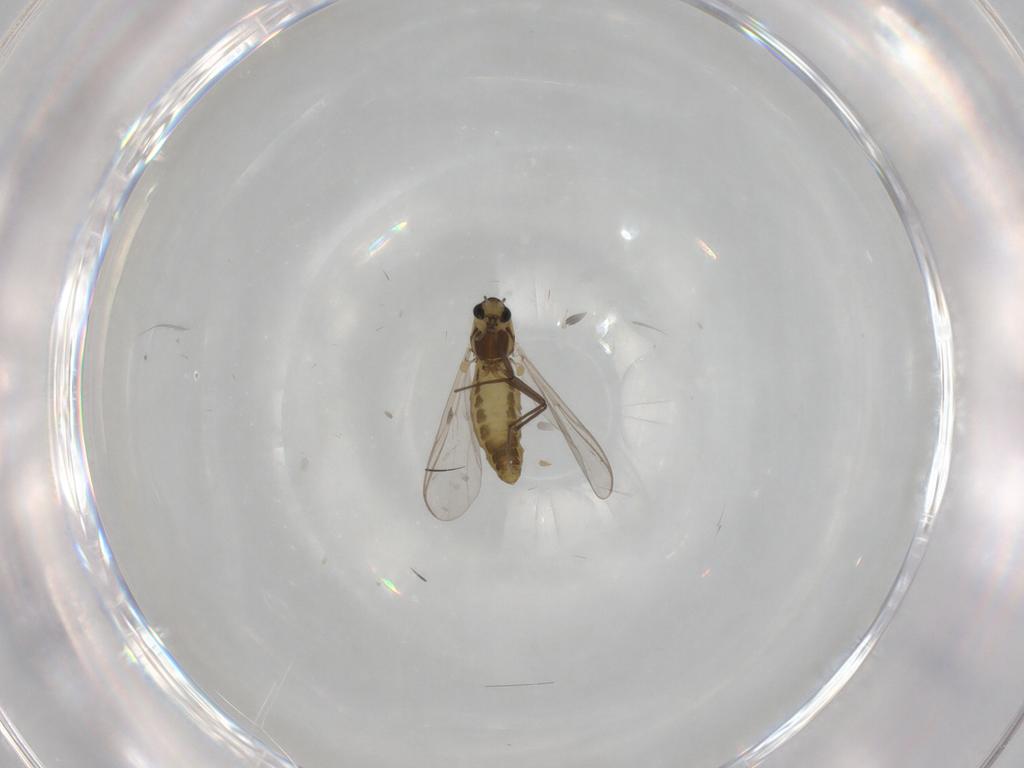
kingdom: Animalia
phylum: Arthropoda
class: Insecta
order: Diptera
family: Chironomidae
